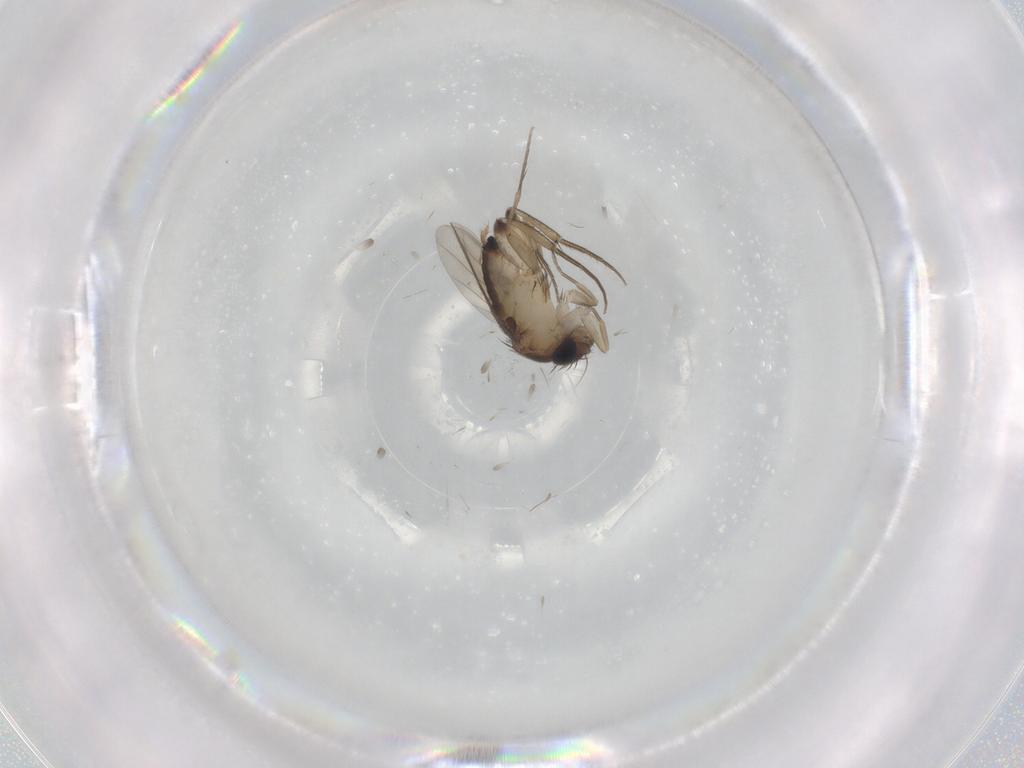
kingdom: Animalia
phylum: Arthropoda
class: Insecta
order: Diptera
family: Phoridae
